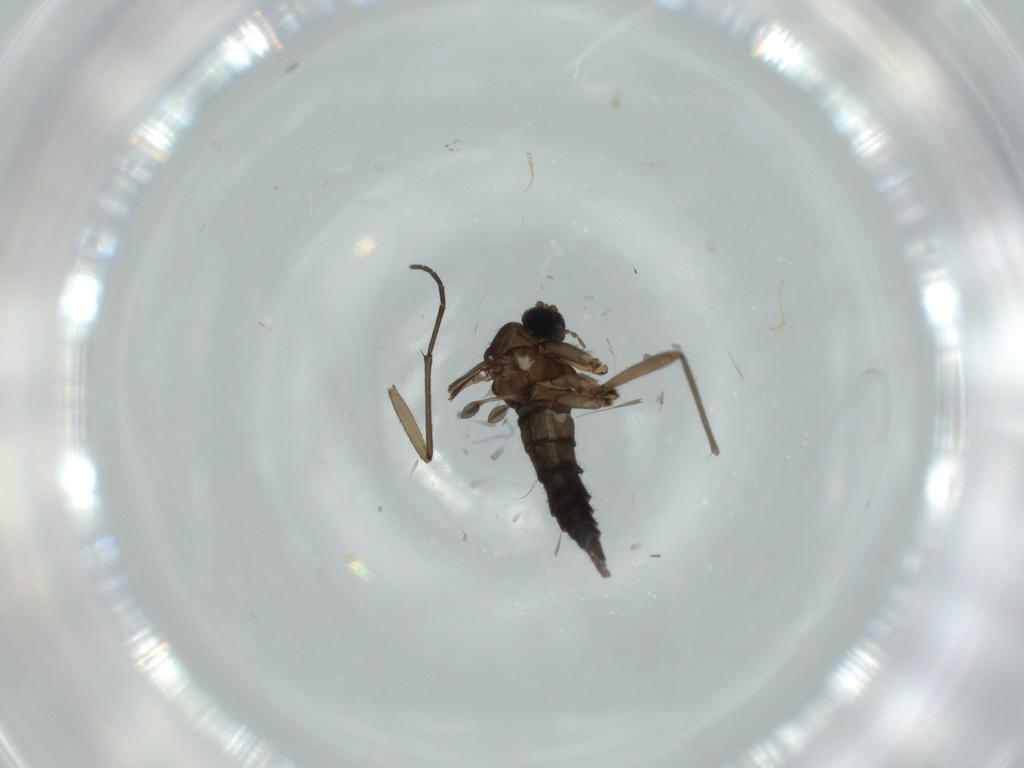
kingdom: Animalia
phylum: Arthropoda
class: Insecta
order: Diptera
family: Sciaridae
